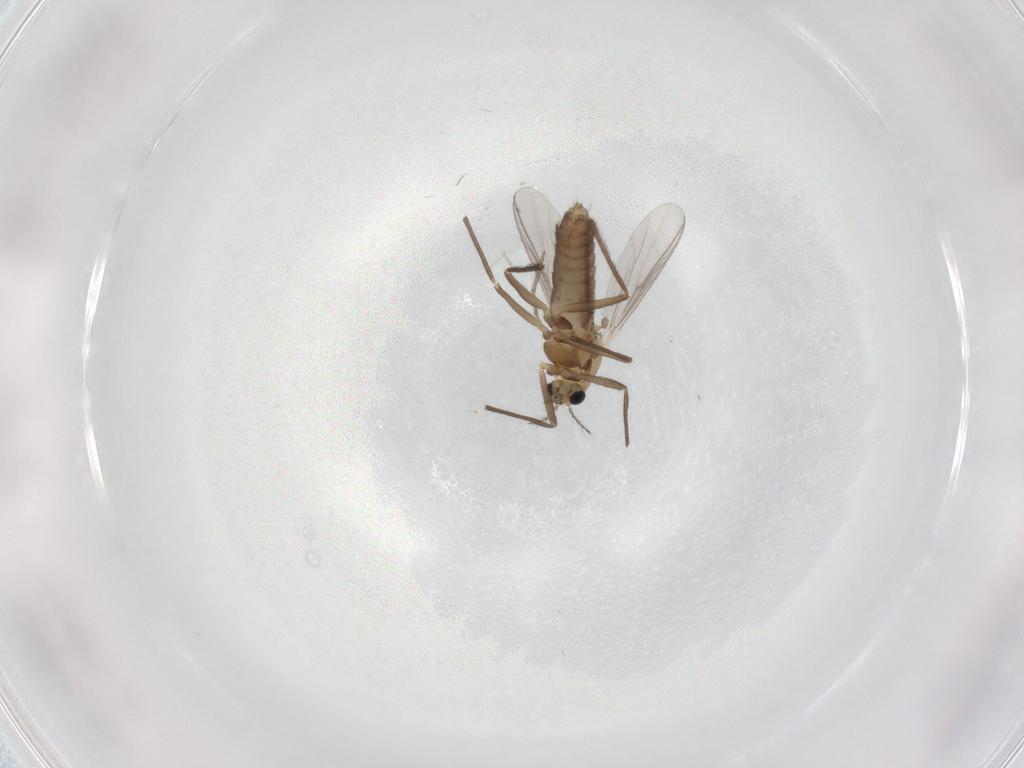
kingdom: Animalia
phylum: Arthropoda
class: Insecta
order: Diptera
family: Chironomidae
